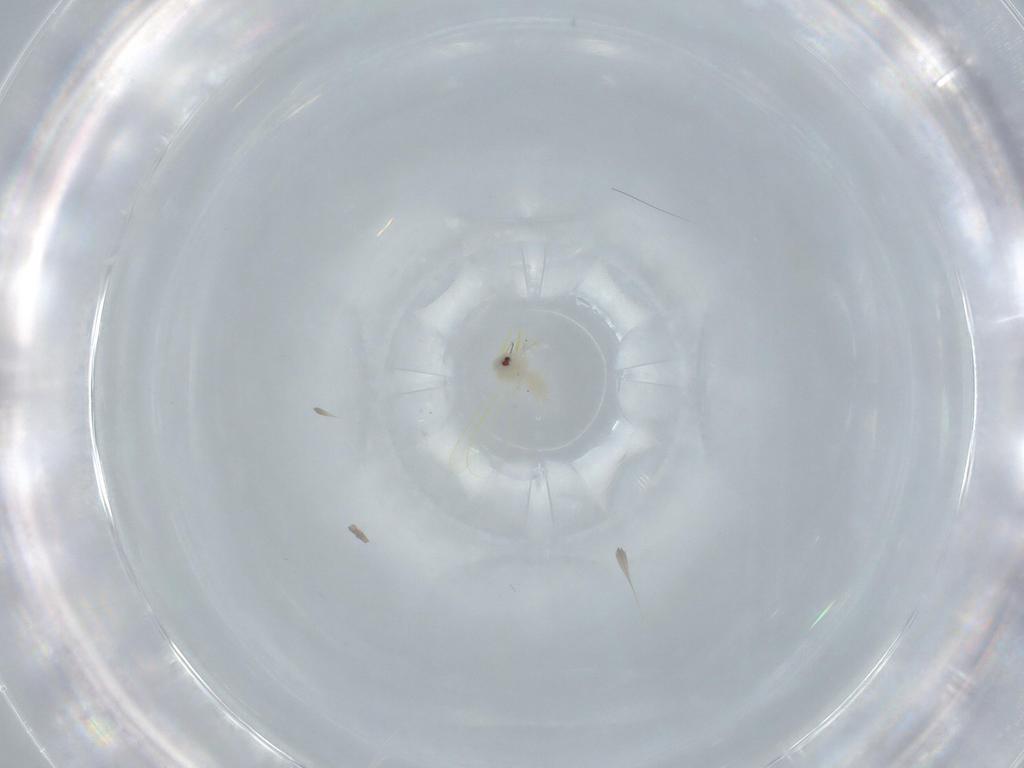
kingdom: Animalia
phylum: Arthropoda
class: Insecta
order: Hemiptera
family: Aleyrodidae
